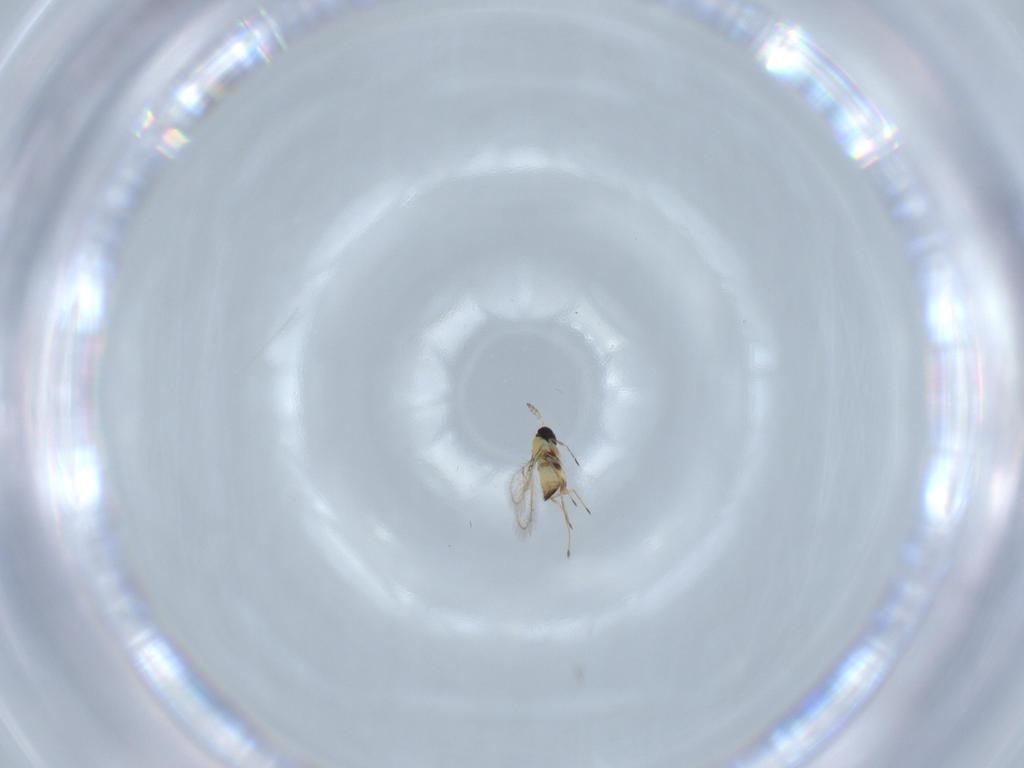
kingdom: Animalia
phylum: Arthropoda
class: Insecta
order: Hymenoptera
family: Trichogrammatidae
